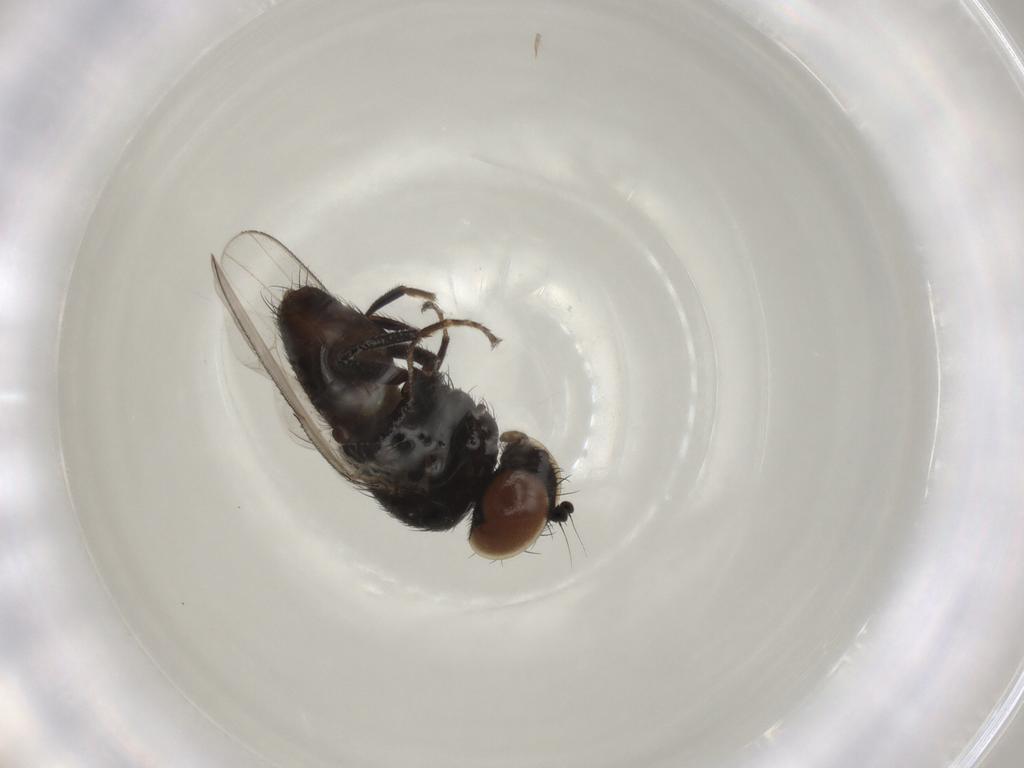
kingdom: Animalia
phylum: Arthropoda
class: Insecta
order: Diptera
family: Milichiidae
